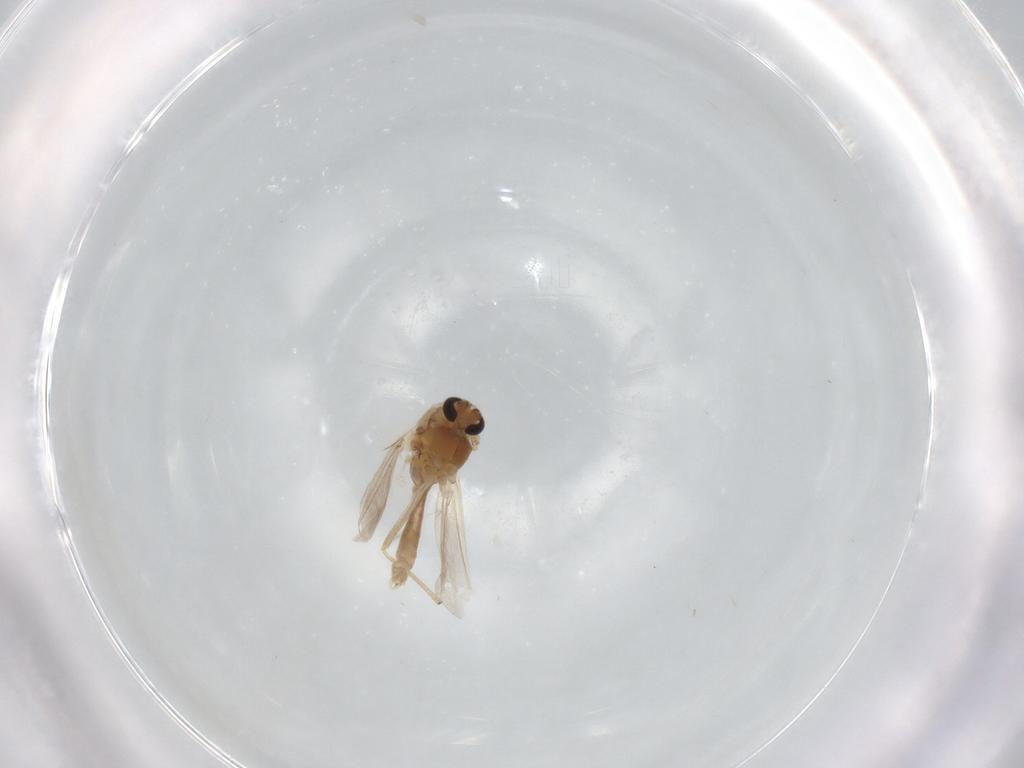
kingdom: Animalia
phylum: Arthropoda
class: Insecta
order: Diptera
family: Chironomidae
